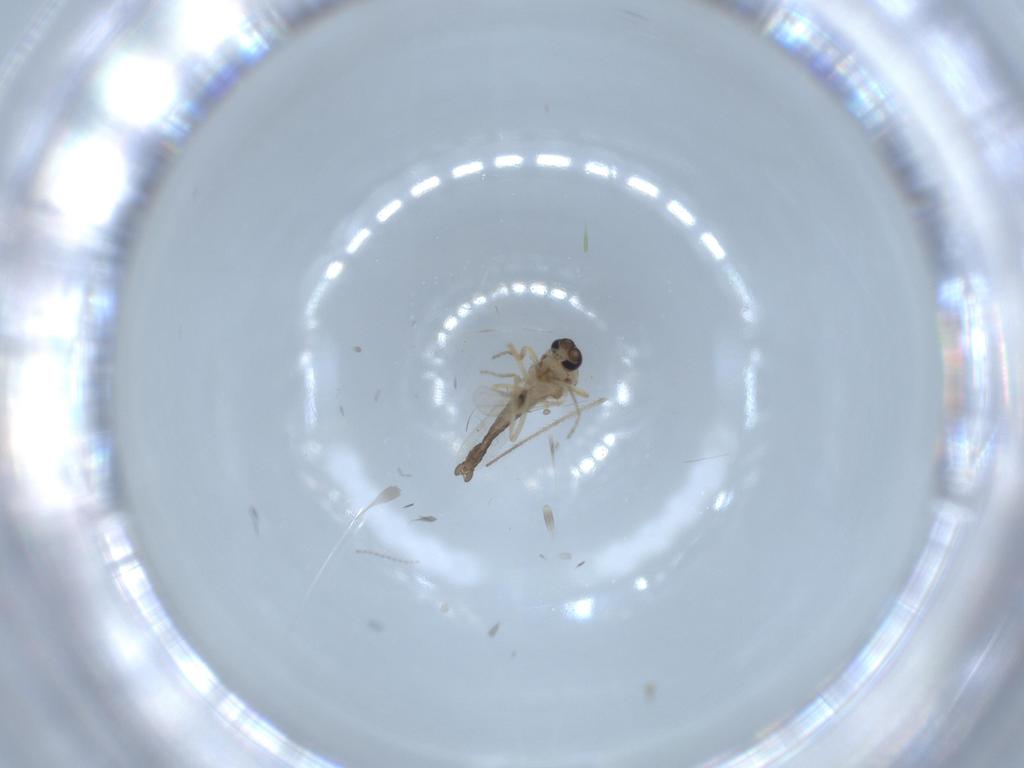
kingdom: Animalia
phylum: Arthropoda
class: Insecta
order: Diptera
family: Ceratopogonidae
